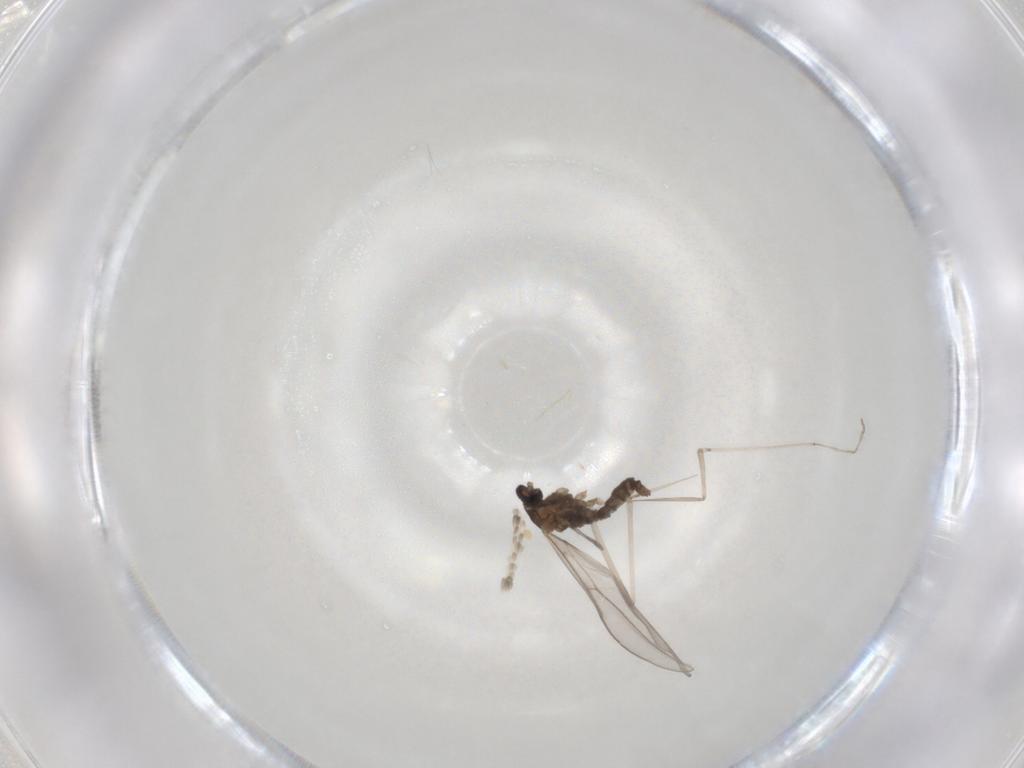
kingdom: Animalia
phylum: Arthropoda
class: Insecta
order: Diptera
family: Cecidomyiidae
